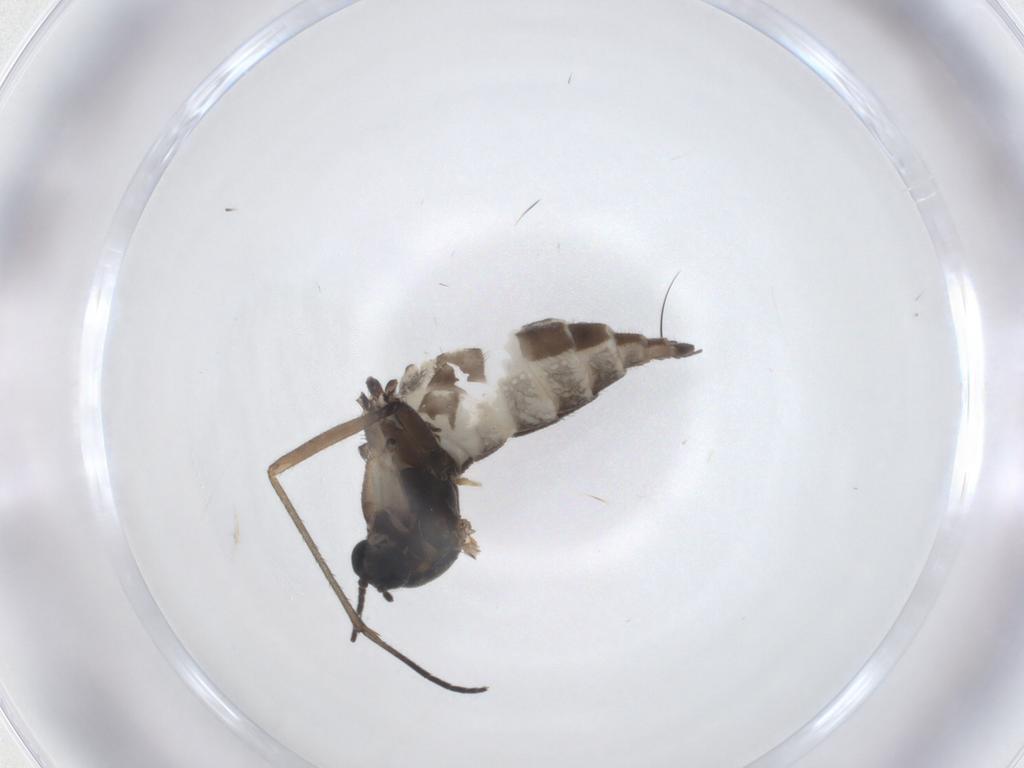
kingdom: Animalia
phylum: Arthropoda
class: Insecta
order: Diptera
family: Sciaridae
